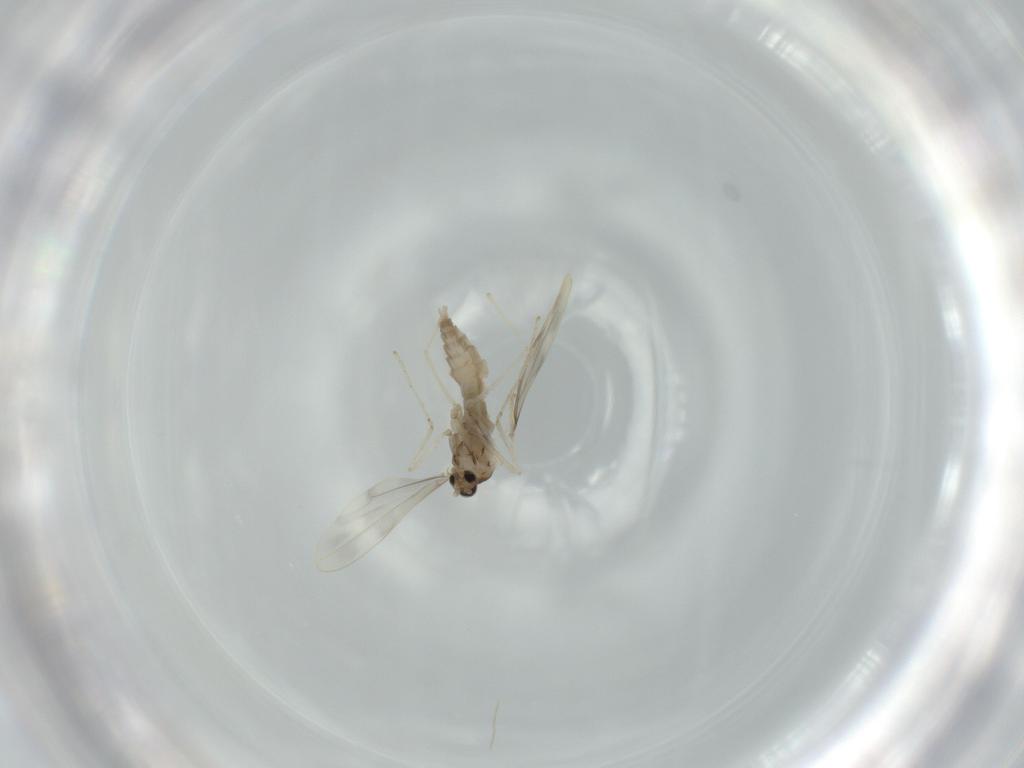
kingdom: Animalia
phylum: Arthropoda
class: Insecta
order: Diptera
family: Cecidomyiidae
